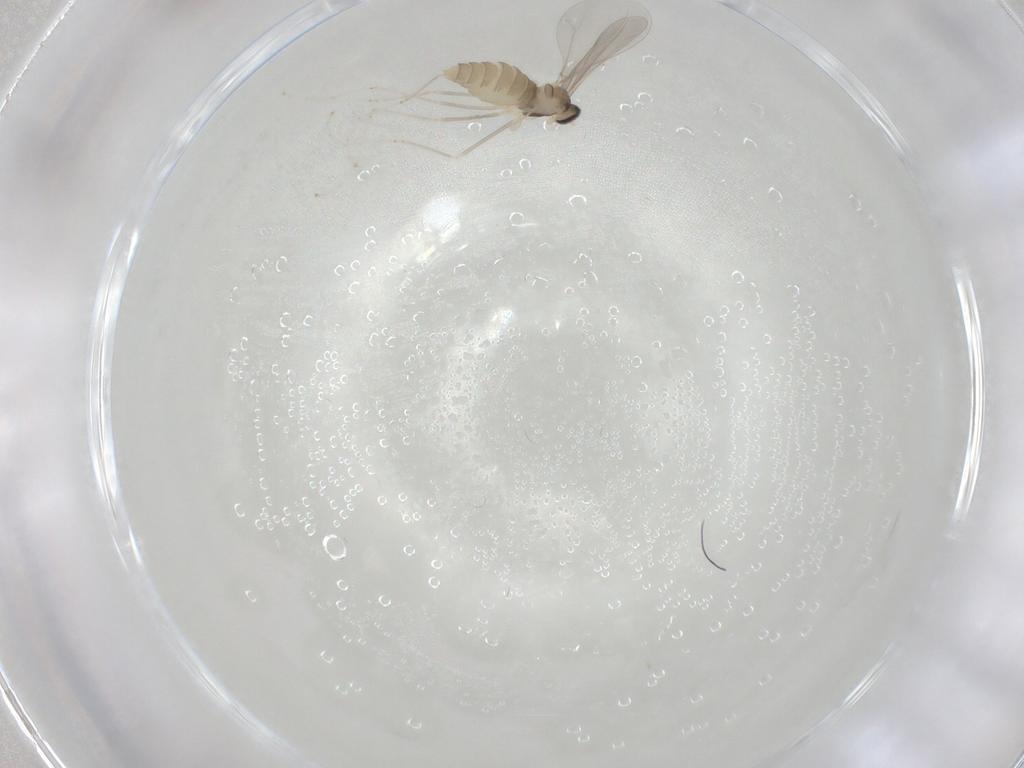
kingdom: Animalia
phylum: Arthropoda
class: Insecta
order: Diptera
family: Cecidomyiidae
